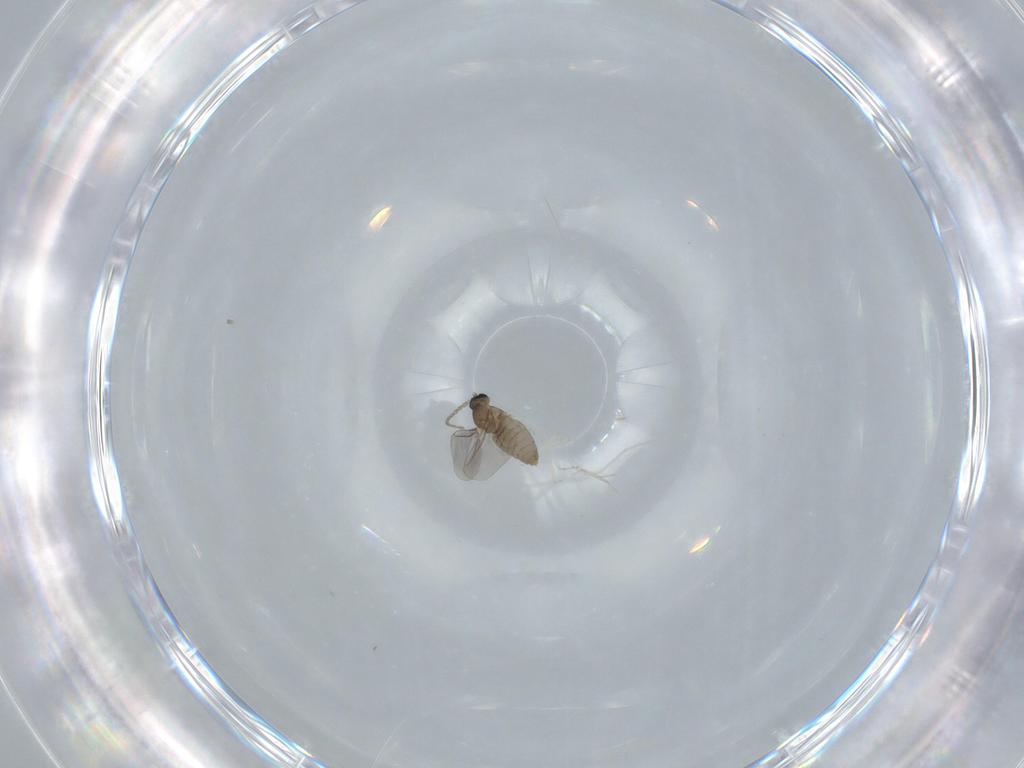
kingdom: Animalia
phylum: Arthropoda
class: Insecta
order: Diptera
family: Cecidomyiidae
